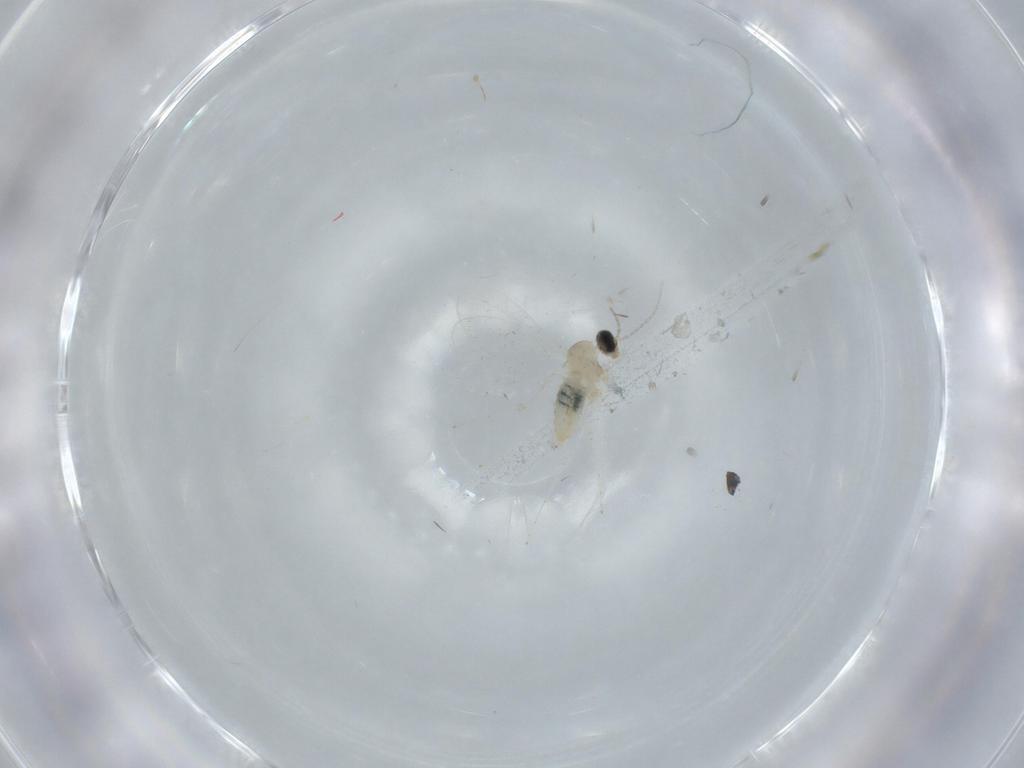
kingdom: Animalia
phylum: Arthropoda
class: Insecta
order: Diptera
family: Cecidomyiidae
